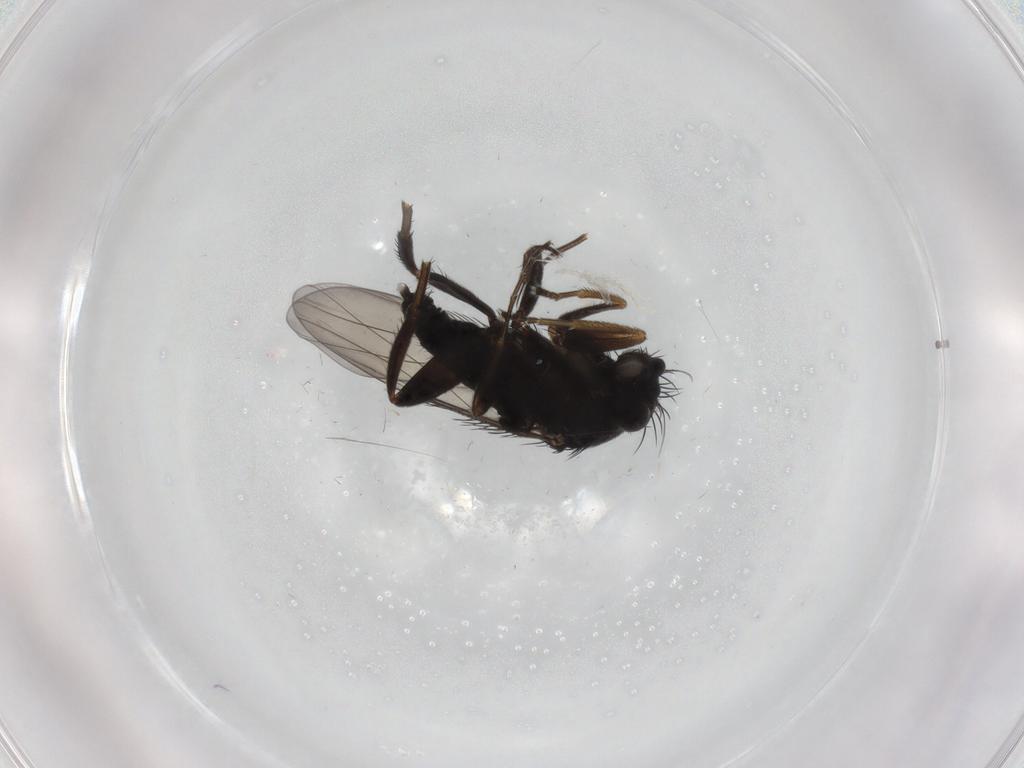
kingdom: Animalia
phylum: Arthropoda
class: Insecta
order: Diptera
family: Phoridae
